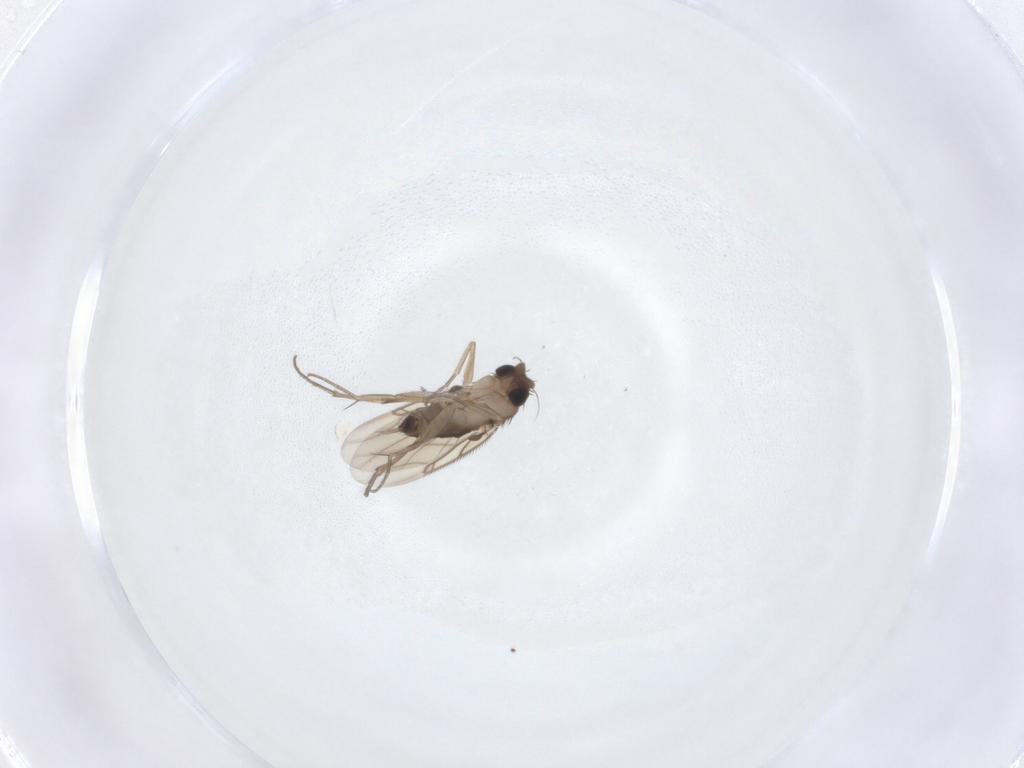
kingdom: Animalia
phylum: Arthropoda
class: Insecta
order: Diptera
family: Phoridae
